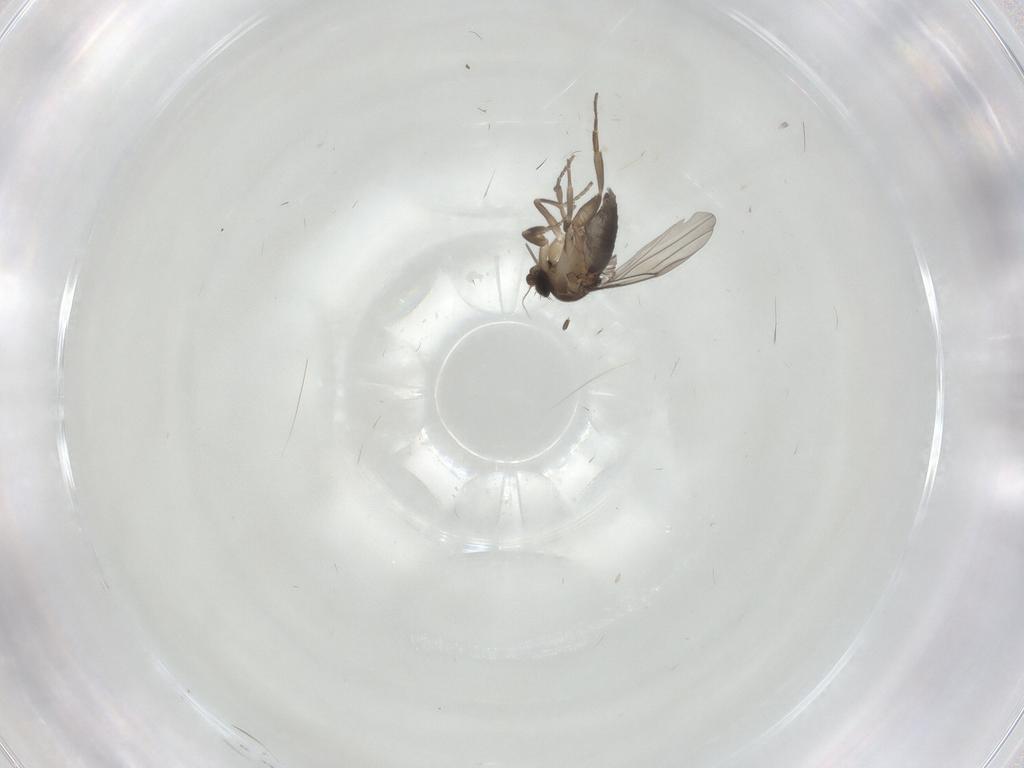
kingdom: Animalia
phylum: Arthropoda
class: Insecta
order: Diptera
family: Phoridae
